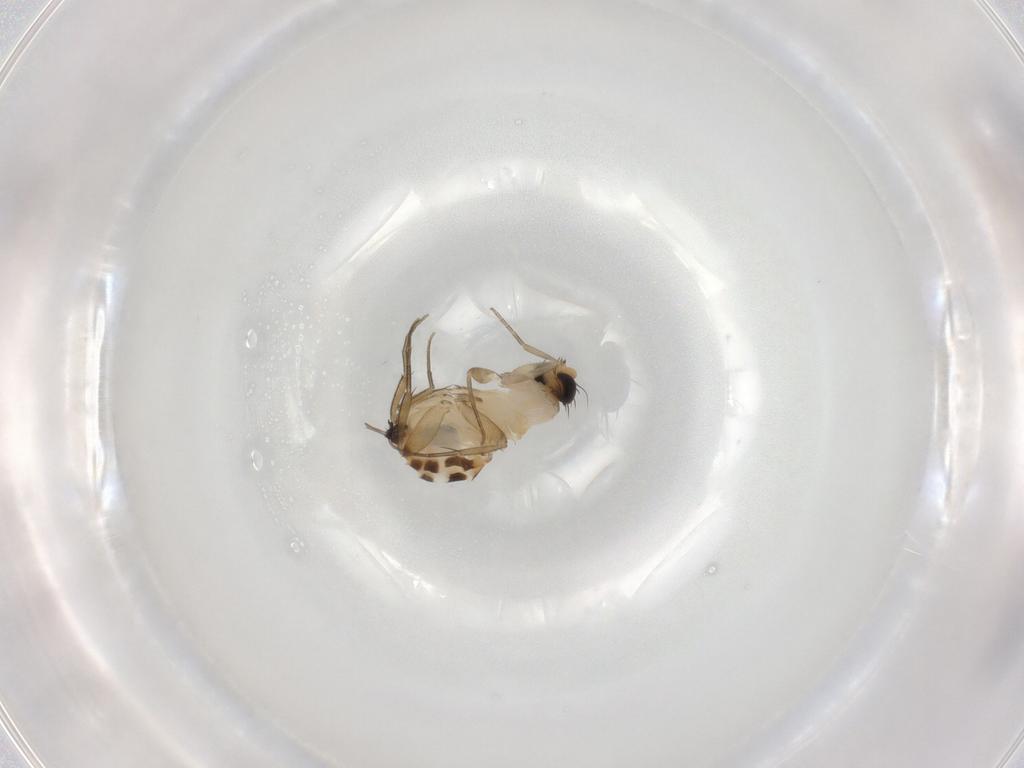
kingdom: Animalia
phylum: Arthropoda
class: Insecta
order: Diptera
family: Phoridae
